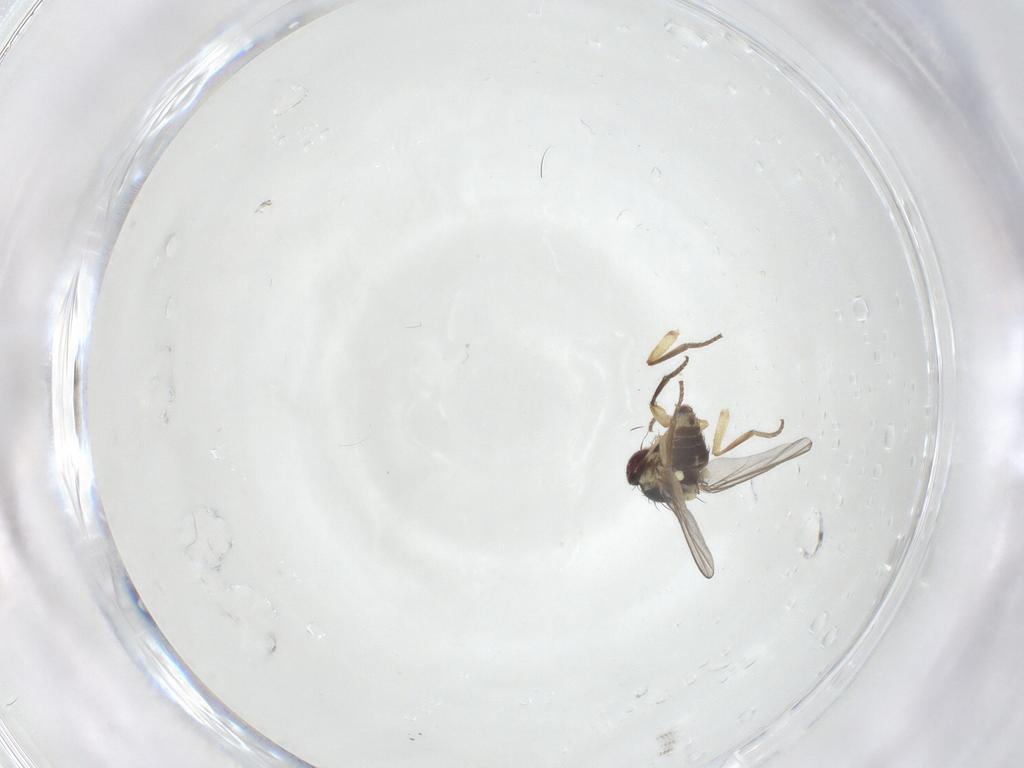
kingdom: Animalia
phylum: Arthropoda
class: Insecta
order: Diptera
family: Agromyzidae
